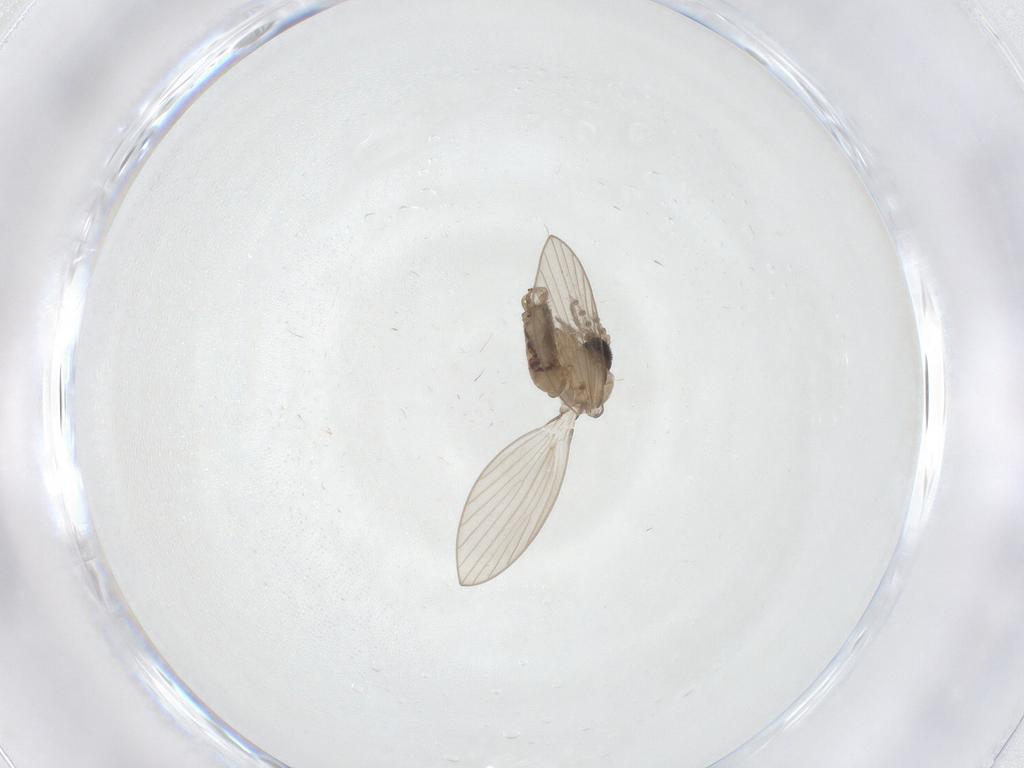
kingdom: Animalia
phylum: Arthropoda
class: Insecta
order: Diptera
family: Psychodidae
